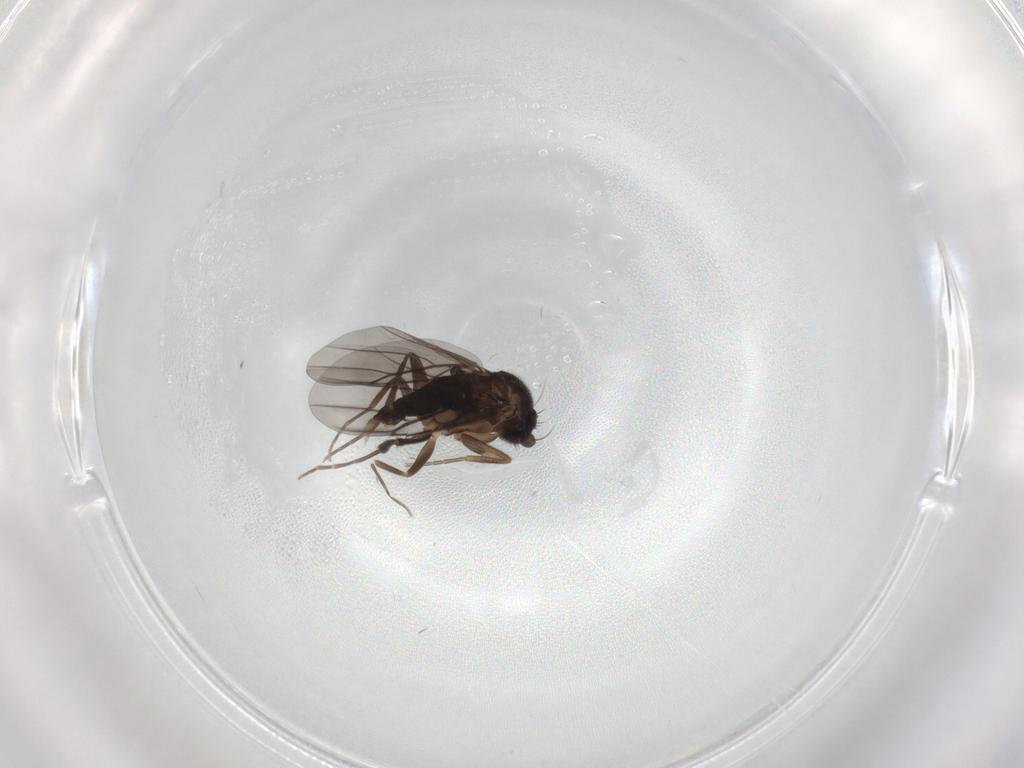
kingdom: Animalia
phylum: Arthropoda
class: Insecta
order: Diptera
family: Phoridae
